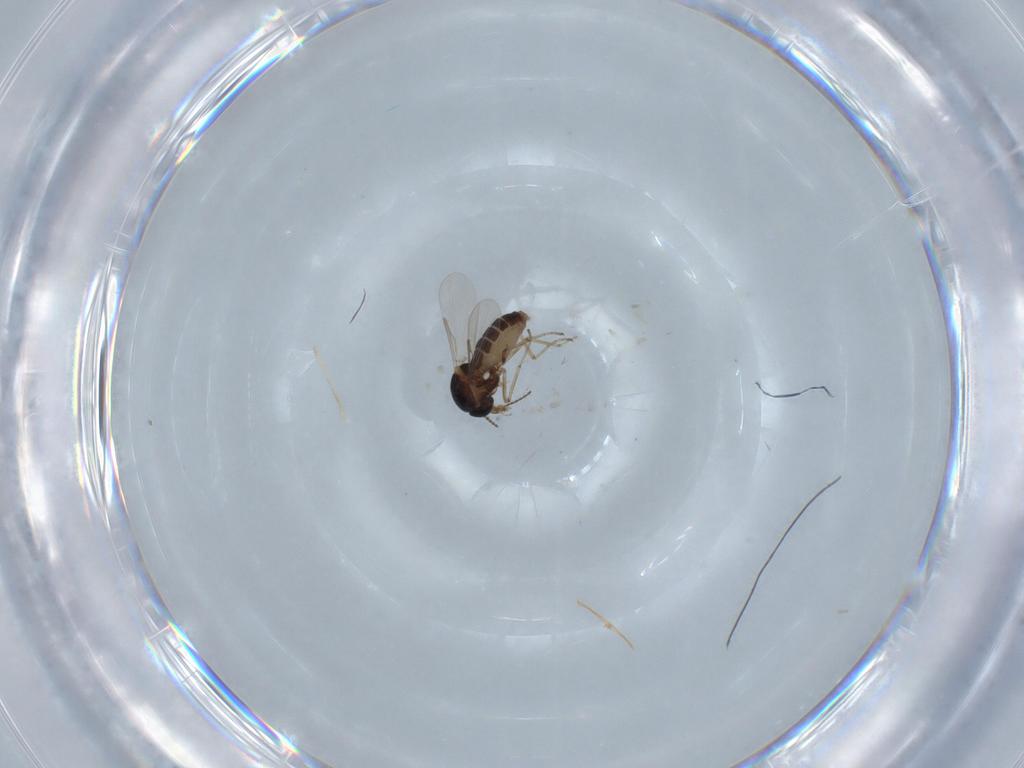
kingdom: Animalia
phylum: Arthropoda
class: Insecta
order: Diptera
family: Ceratopogonidae
